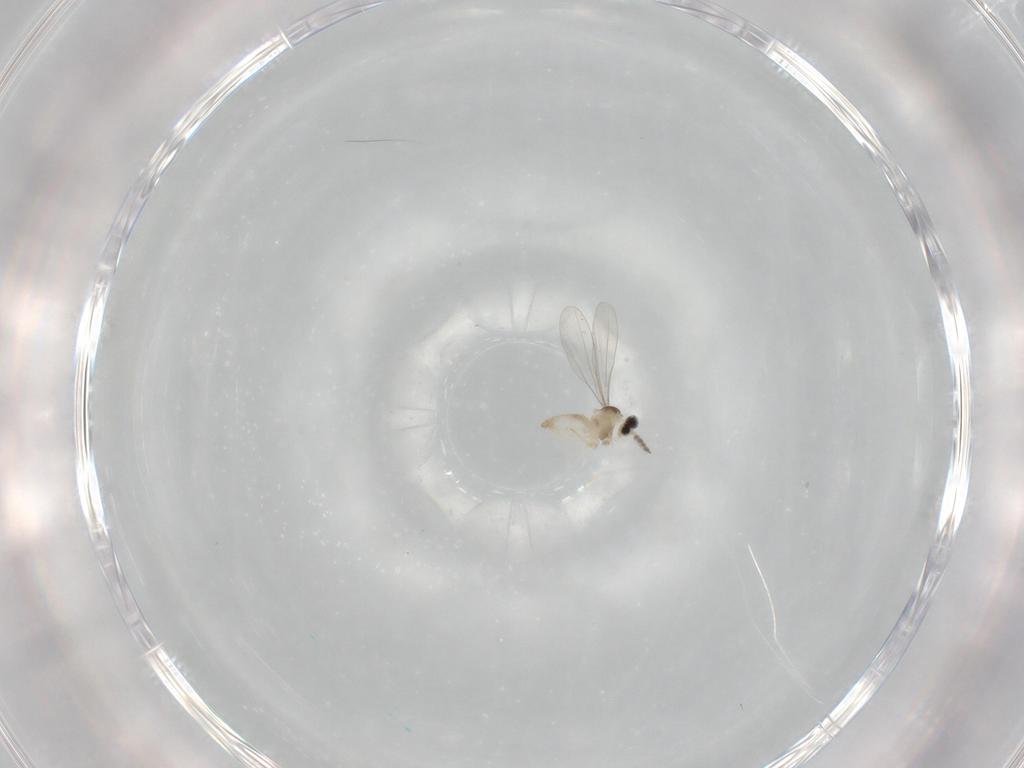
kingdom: Animalia
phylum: Arthropoda
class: Insecta
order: Diptera
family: Cecidomyiidae
